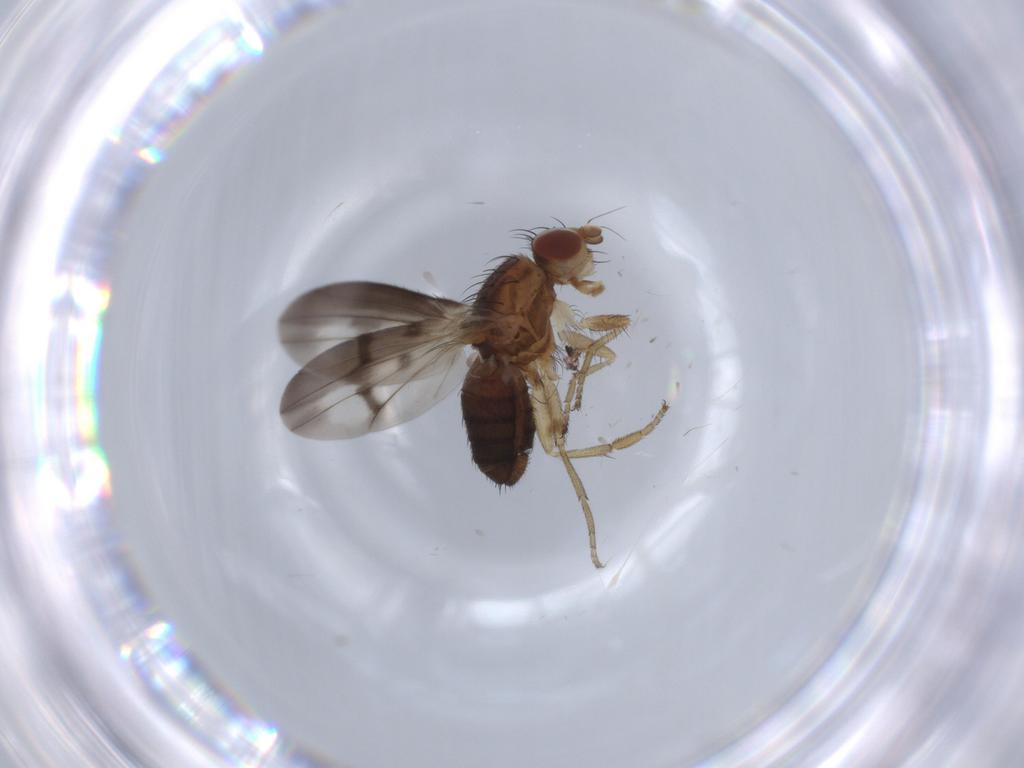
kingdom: Animalia
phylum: Arthropoda
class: Insecta
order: Diptera
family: Heleomyzidae
